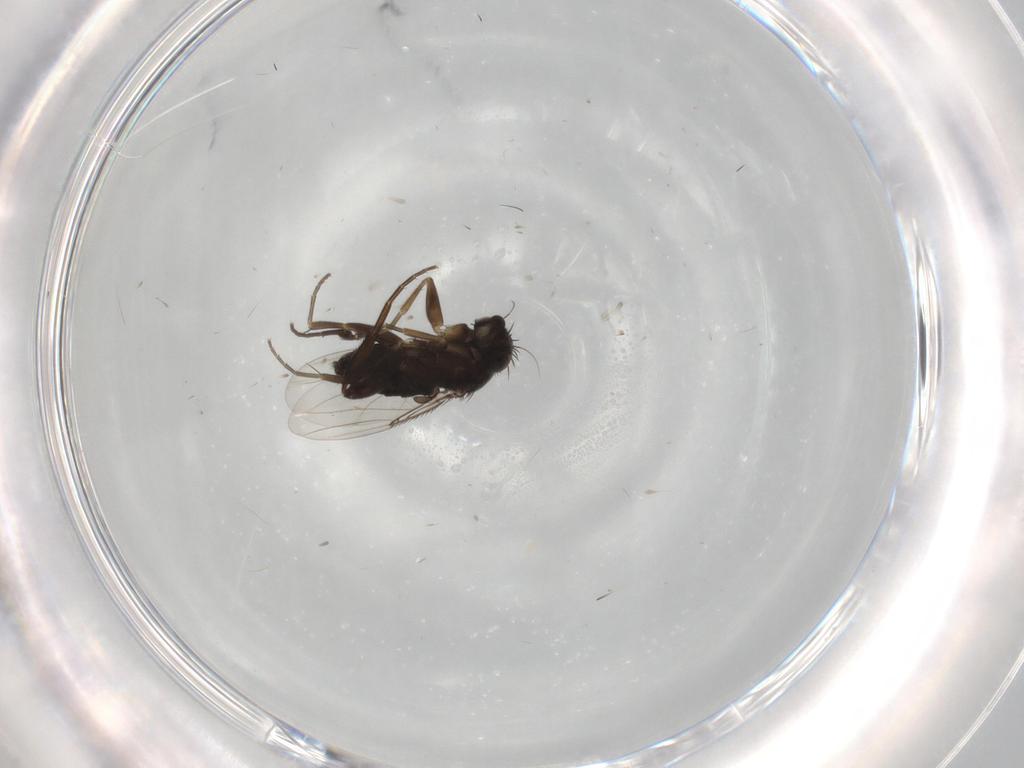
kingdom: Animalia
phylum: Arthropoda
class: Insecta
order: Diptera
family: Phoridae
